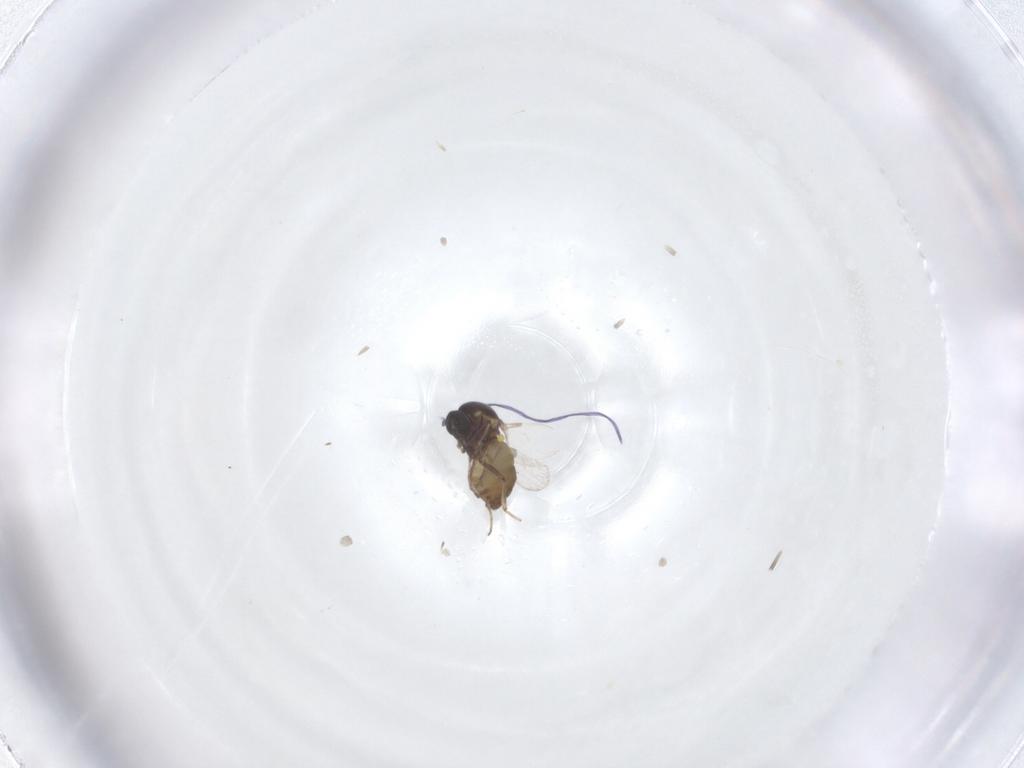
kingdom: Animalia
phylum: Arthropoda
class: Insecta
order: Diptera
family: Ceratopogonidae
